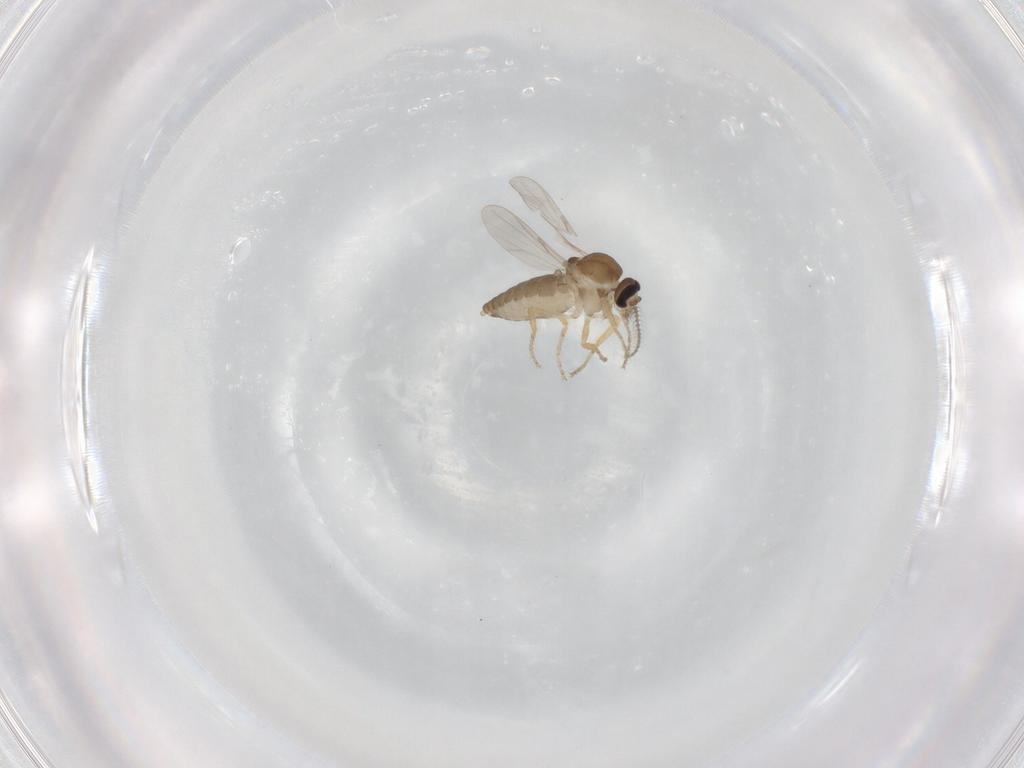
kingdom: Animalia
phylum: Arthropoda
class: Insecta
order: Diptera
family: Ceratopogonidae
